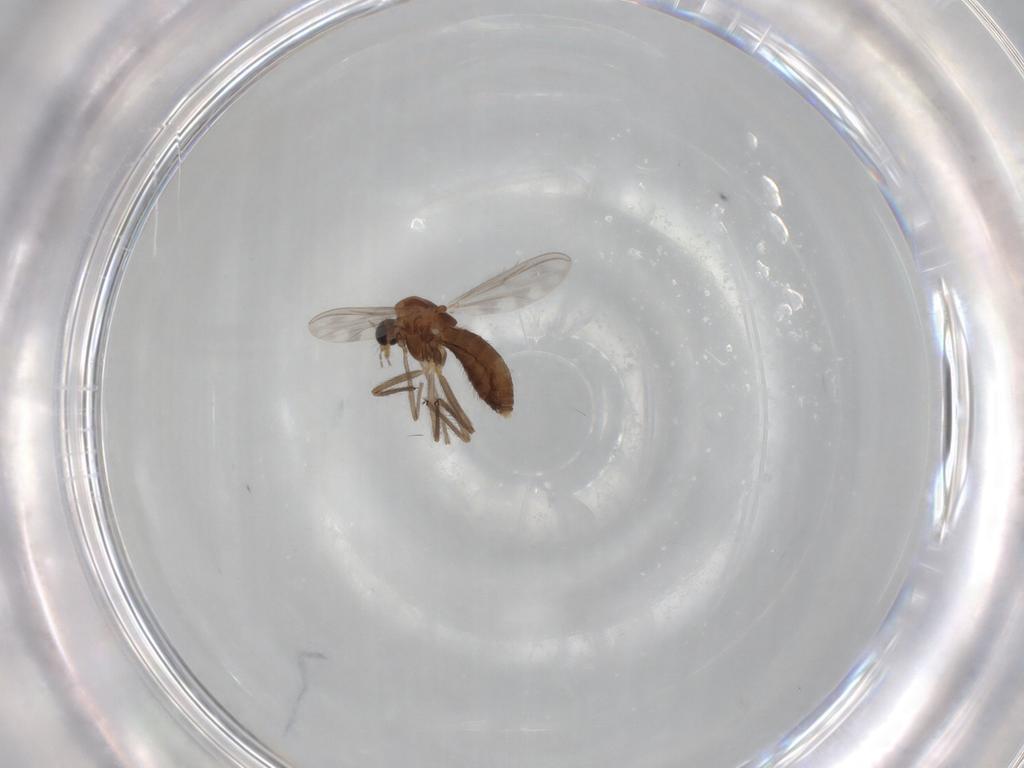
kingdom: Animalia
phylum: Arthropoda
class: Insecta
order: Diptera
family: Chironomidae
